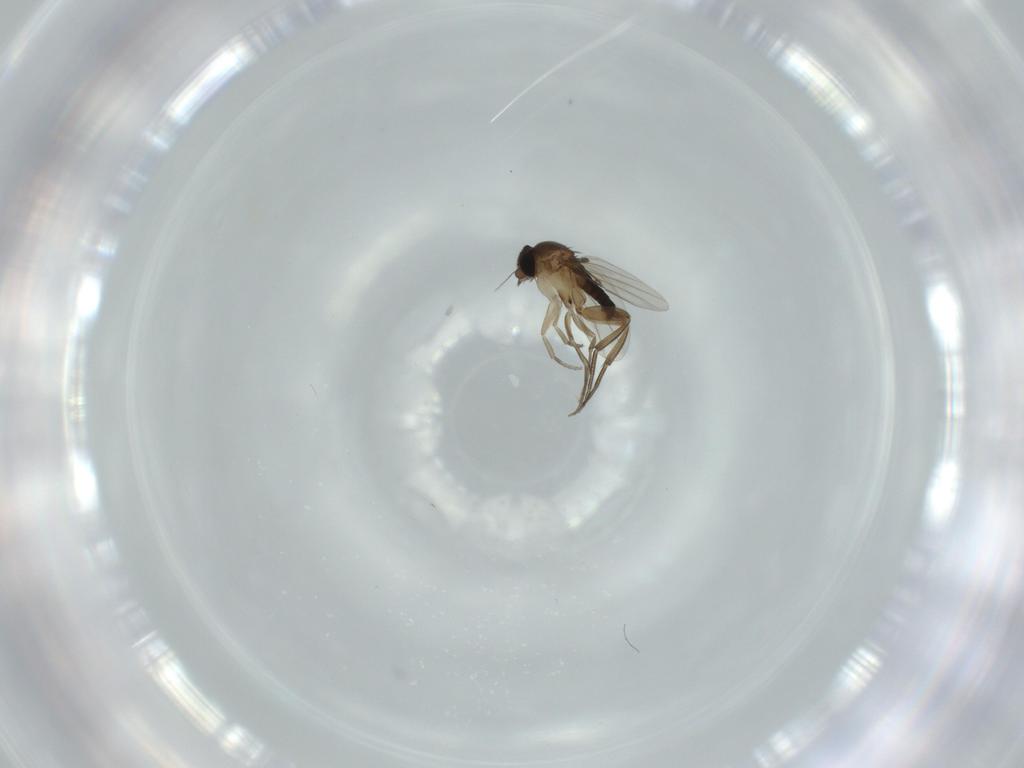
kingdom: Animalia
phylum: Arthropoda
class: Insecta
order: Diptera
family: Phoridae
